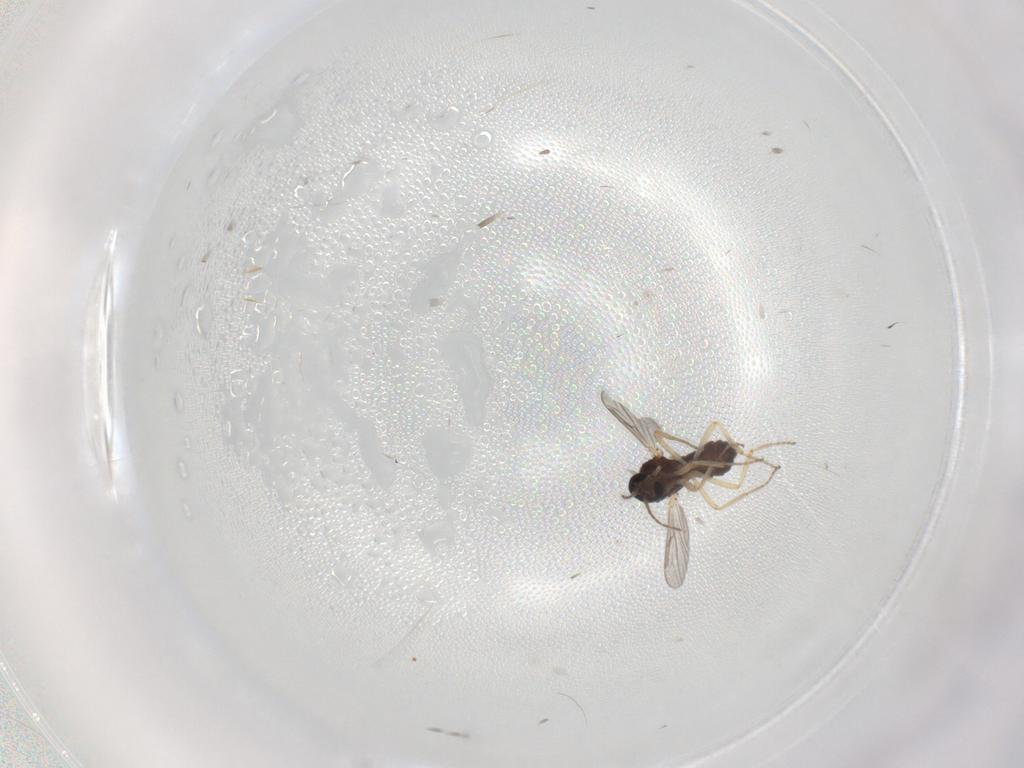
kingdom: Animalia
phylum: Arthropoda
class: Insecta
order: Diptera
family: Ceratopogonidae
